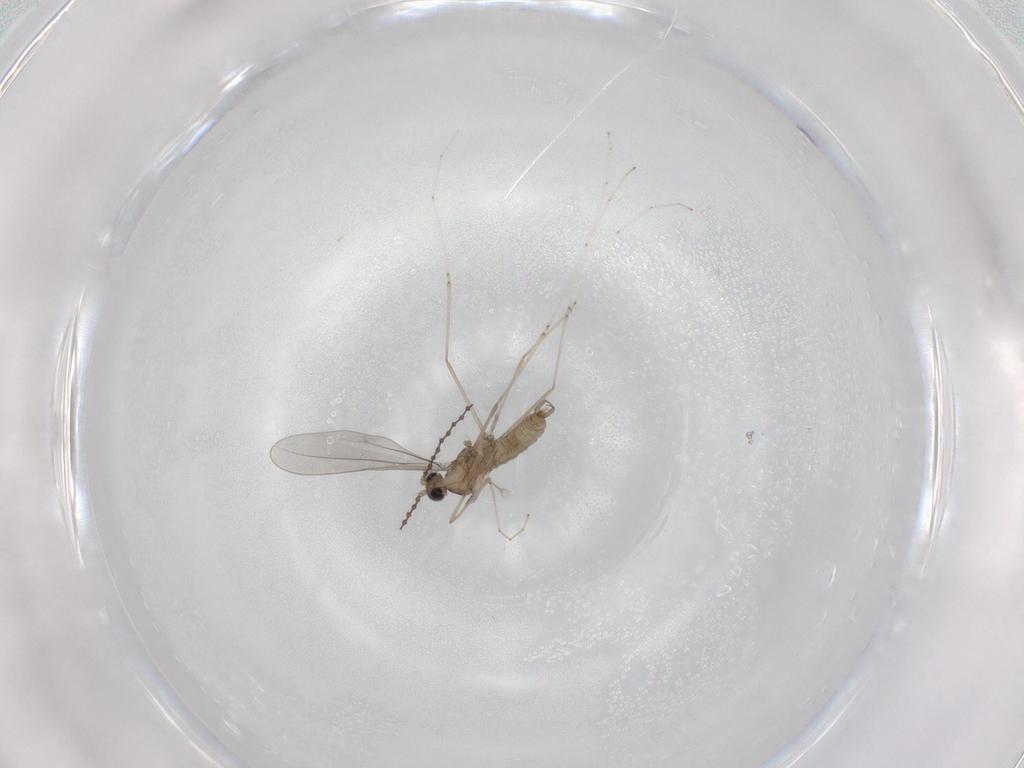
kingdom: Animalia
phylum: Arthropoda
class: Insecta
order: Diptera
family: Cecidomyiidae
